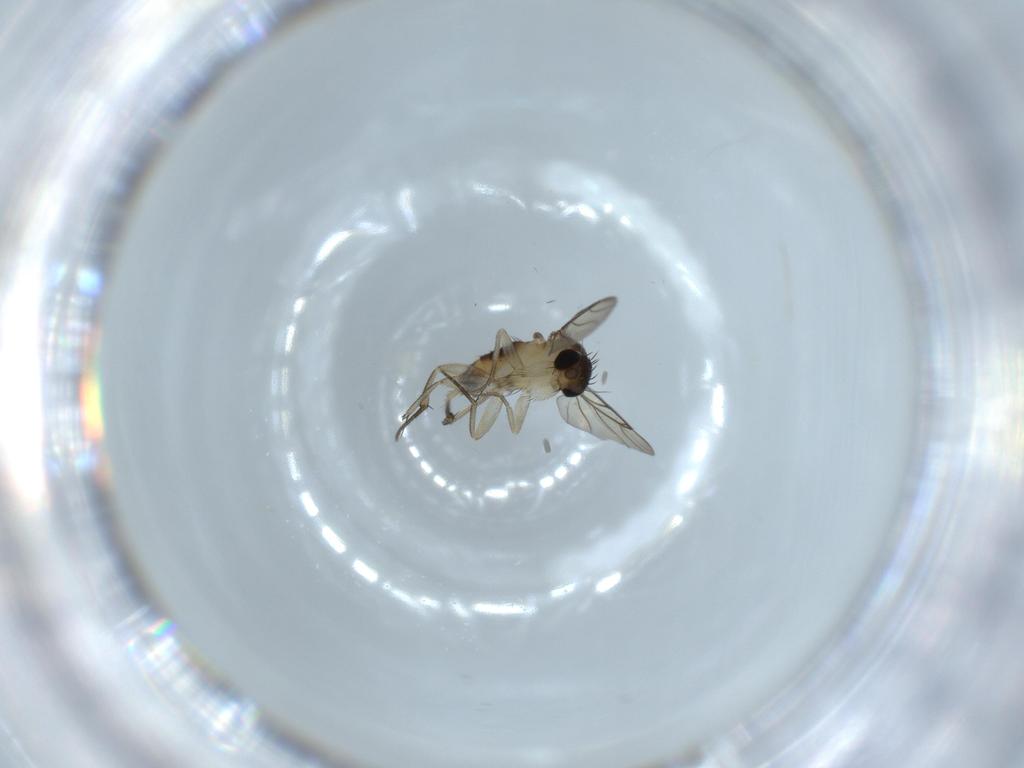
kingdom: Animalia
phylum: Arthropoda
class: Insecta
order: Diptera
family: Phoridae
